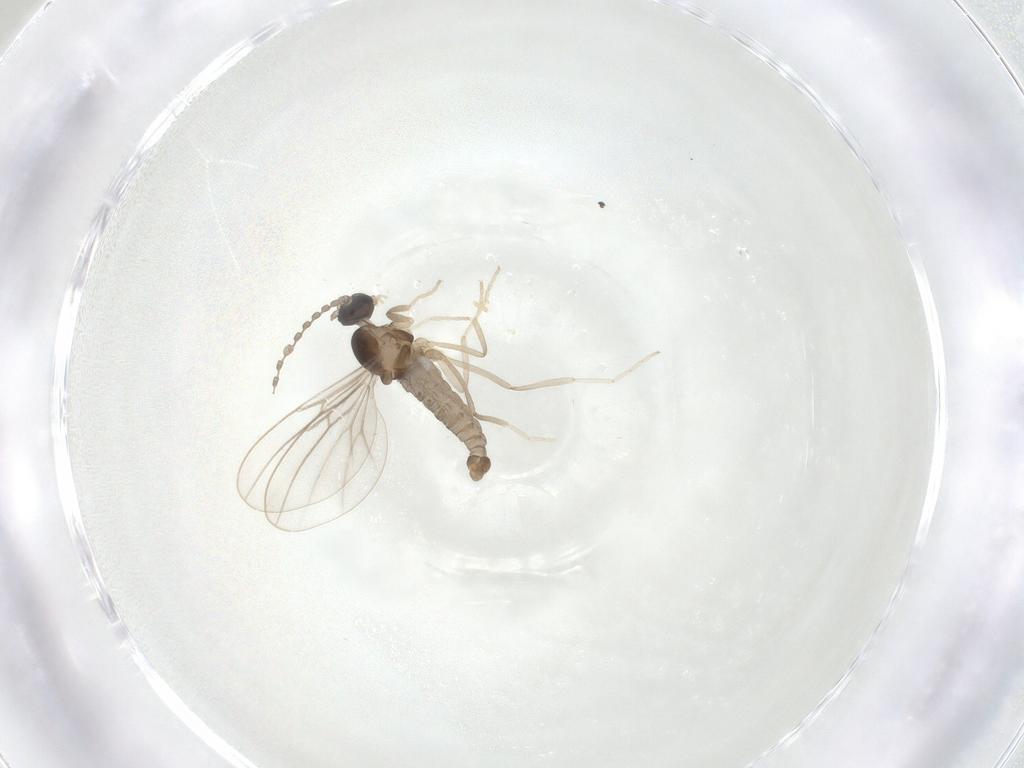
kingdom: Animalia
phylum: Arthropoda
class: Insecta
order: Diptera
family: Cecidomyiidae
